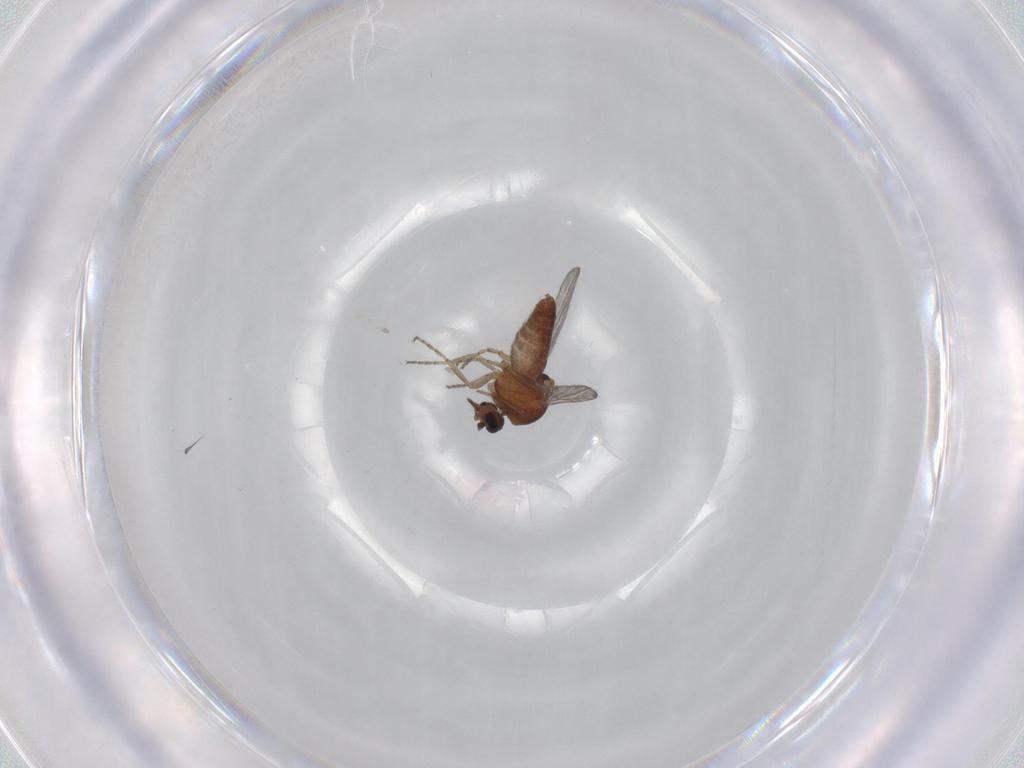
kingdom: Animalia
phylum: Arthropoda
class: Insecta
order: Diptera
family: Ceratopogonidae
